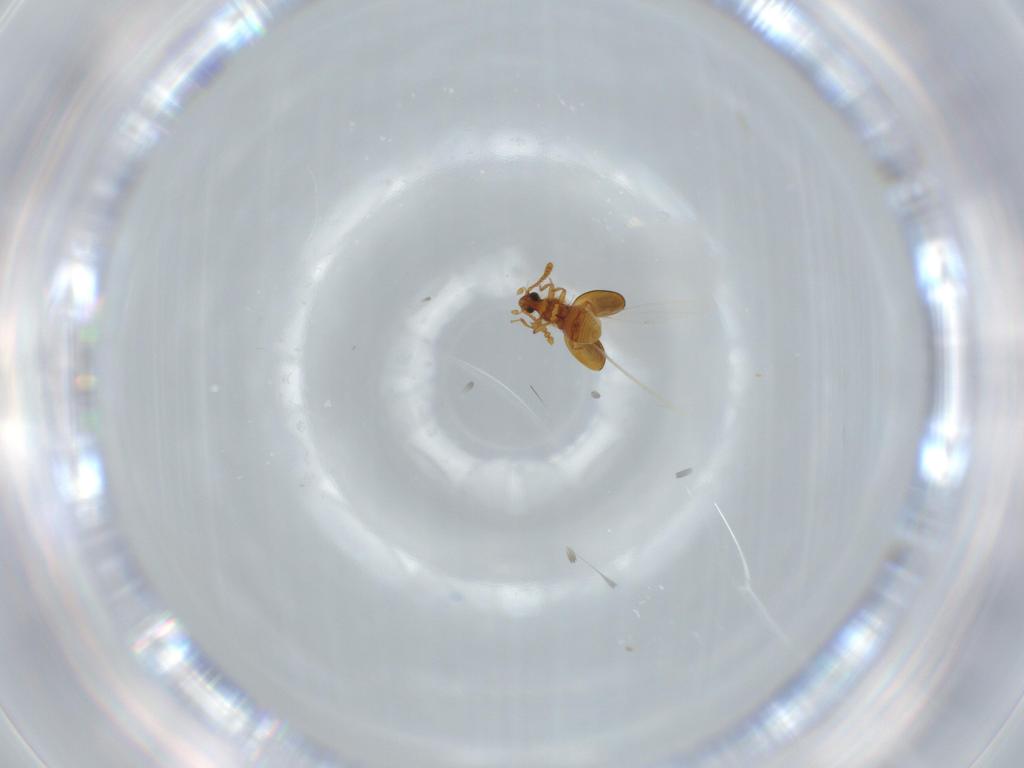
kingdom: Animalia
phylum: Arthropoda
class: Insecta
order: Coleoptera
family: Staphylinidae
